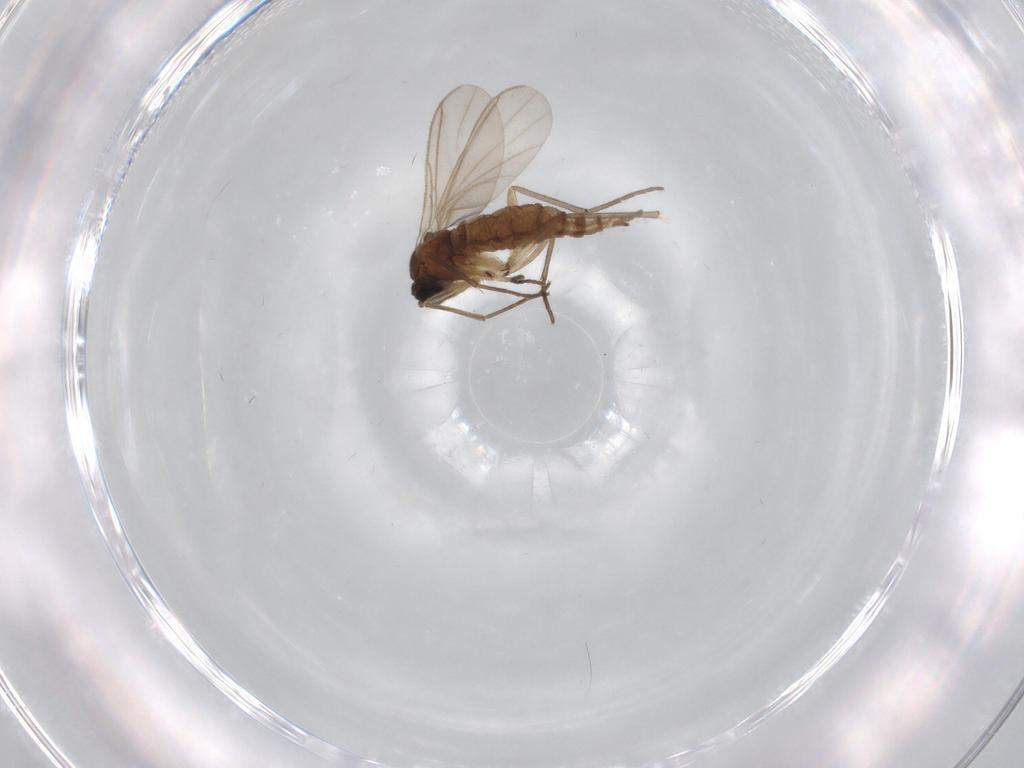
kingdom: Animalia
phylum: Arthropoda
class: Insecta
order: Diptera
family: Sciaridae
